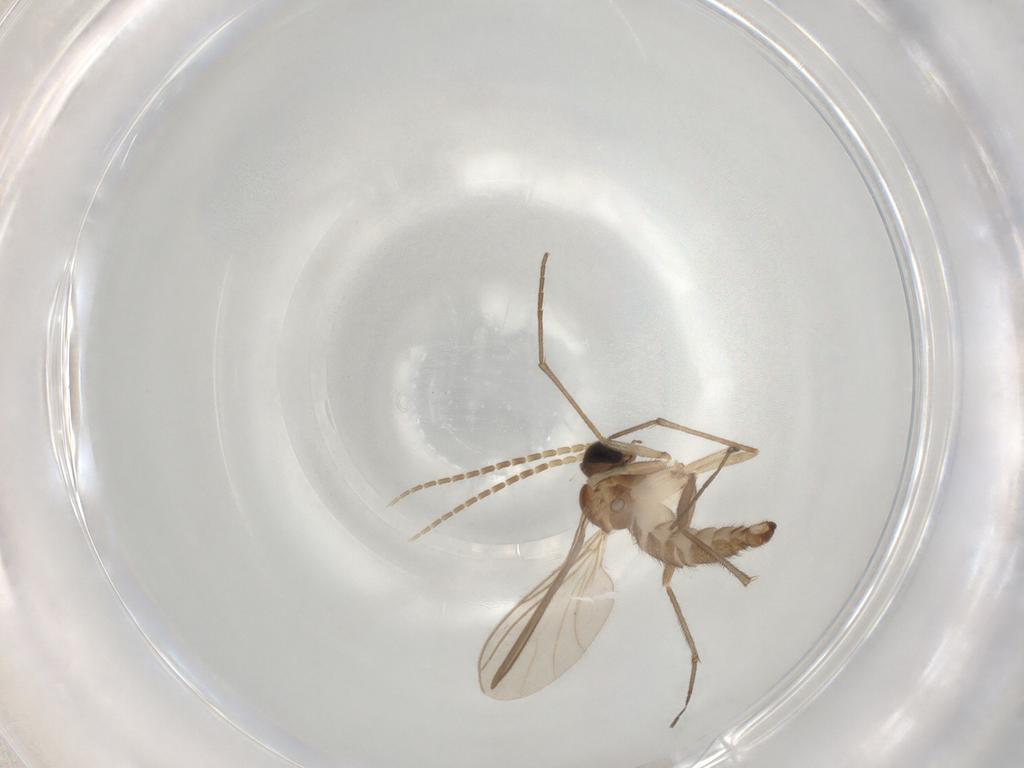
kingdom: Animalia
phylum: Arthropoda
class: Insecta
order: Diptera
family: Sciaridae
